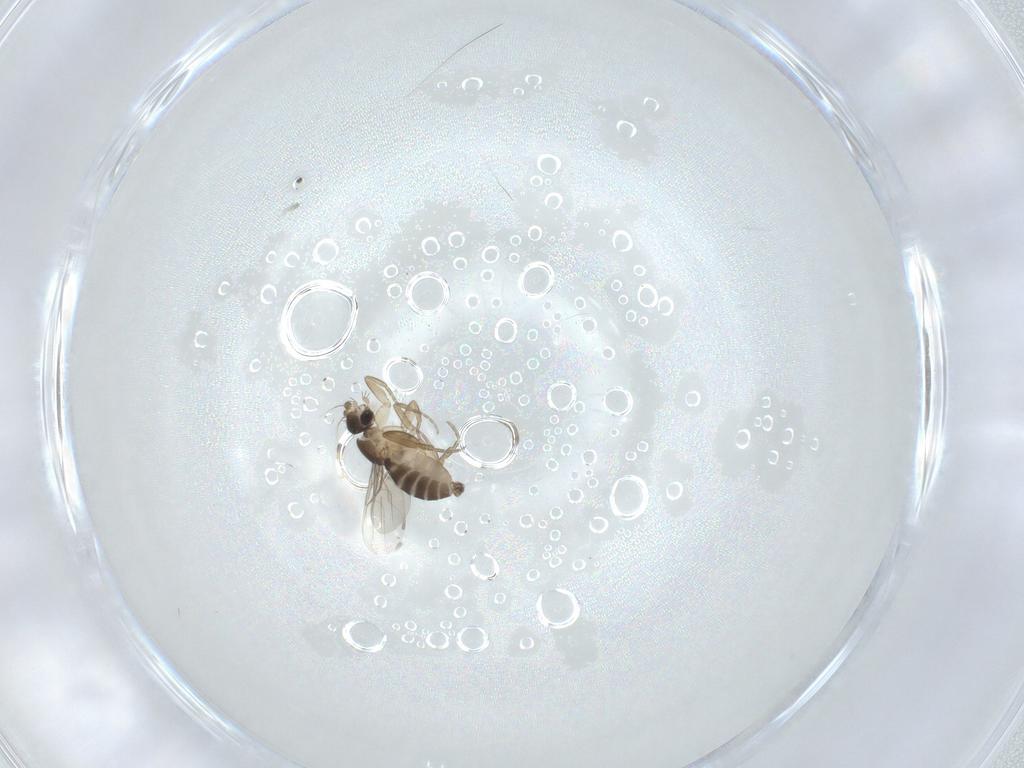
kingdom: Animalia
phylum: Arthropoda
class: Insecta
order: Diptera
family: Phoridae
